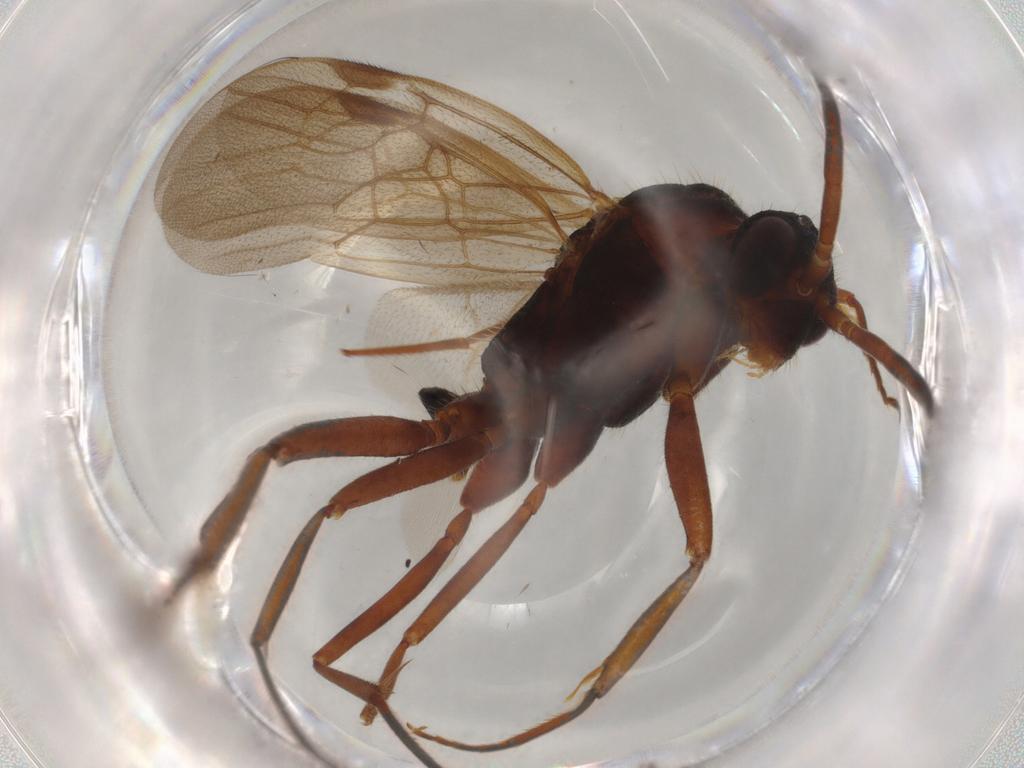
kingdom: Animalia
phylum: Arthropoda
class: Insecta
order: Hymenoptera
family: Formicidae
